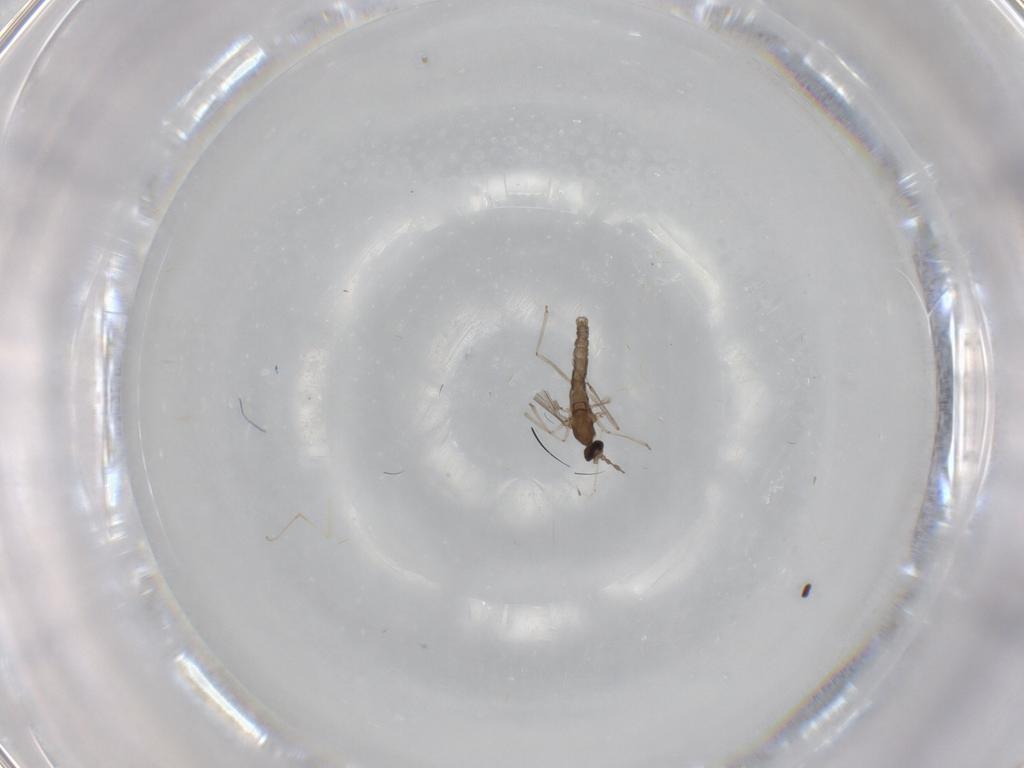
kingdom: Animalia
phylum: Arthropoda
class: Insecta
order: Diptera
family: Cecidomyiidae
